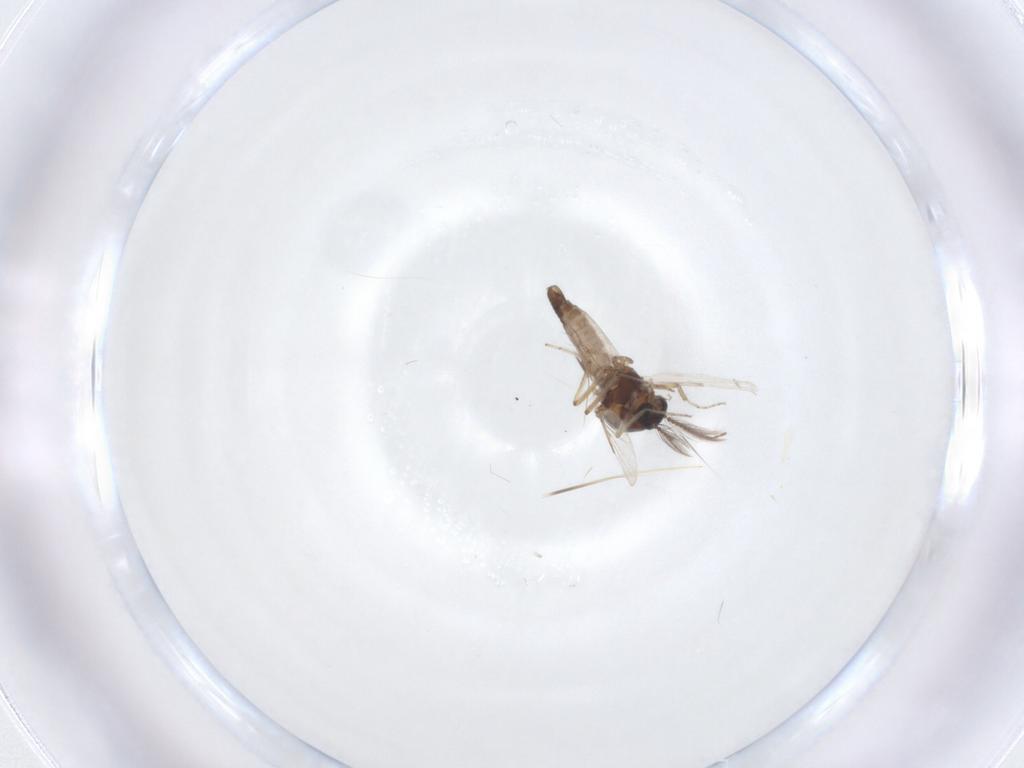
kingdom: Animalia
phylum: Arthropoda
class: Insecta
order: Diptera
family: Ceratopogonidae
